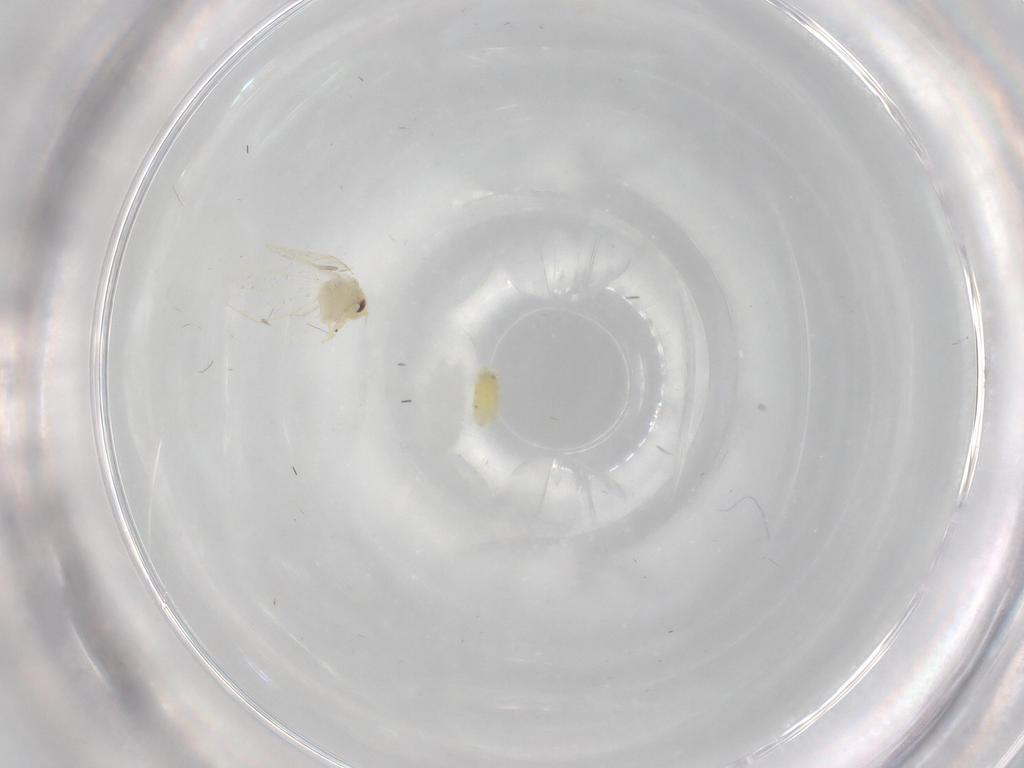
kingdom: Animalia
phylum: Arthropoda
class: Insecta
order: Hemiptera
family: Aleyrodidae
